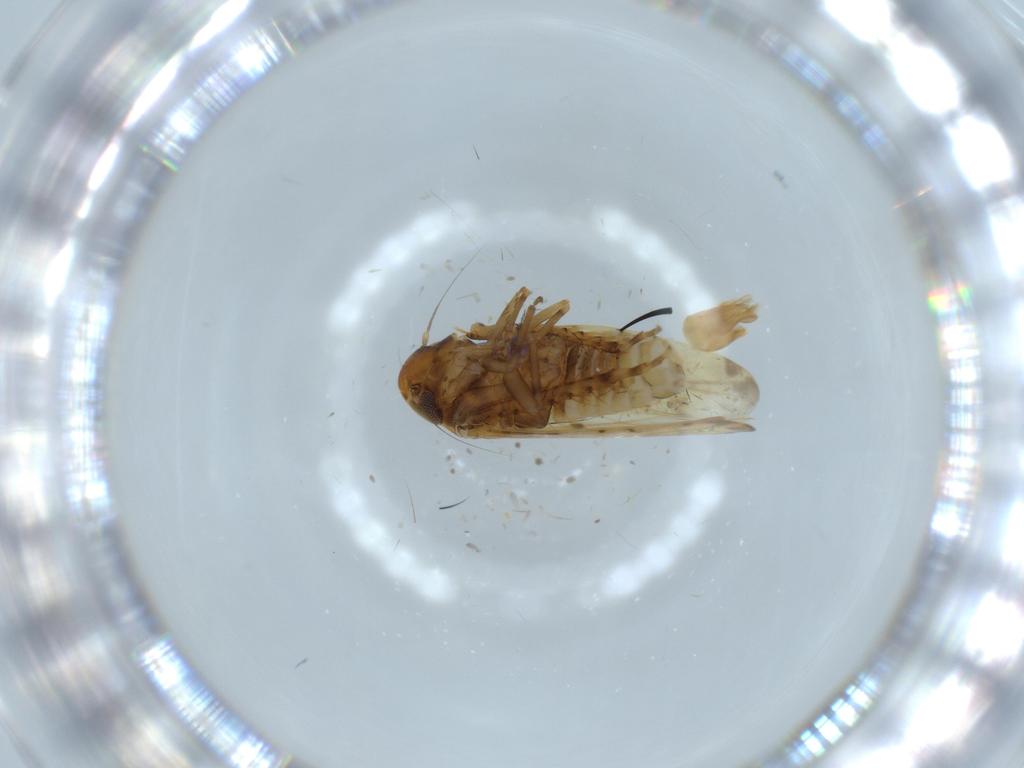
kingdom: Animalia
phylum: Arthropoda
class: Insecta
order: Hemiptera
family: Cicadellidae
